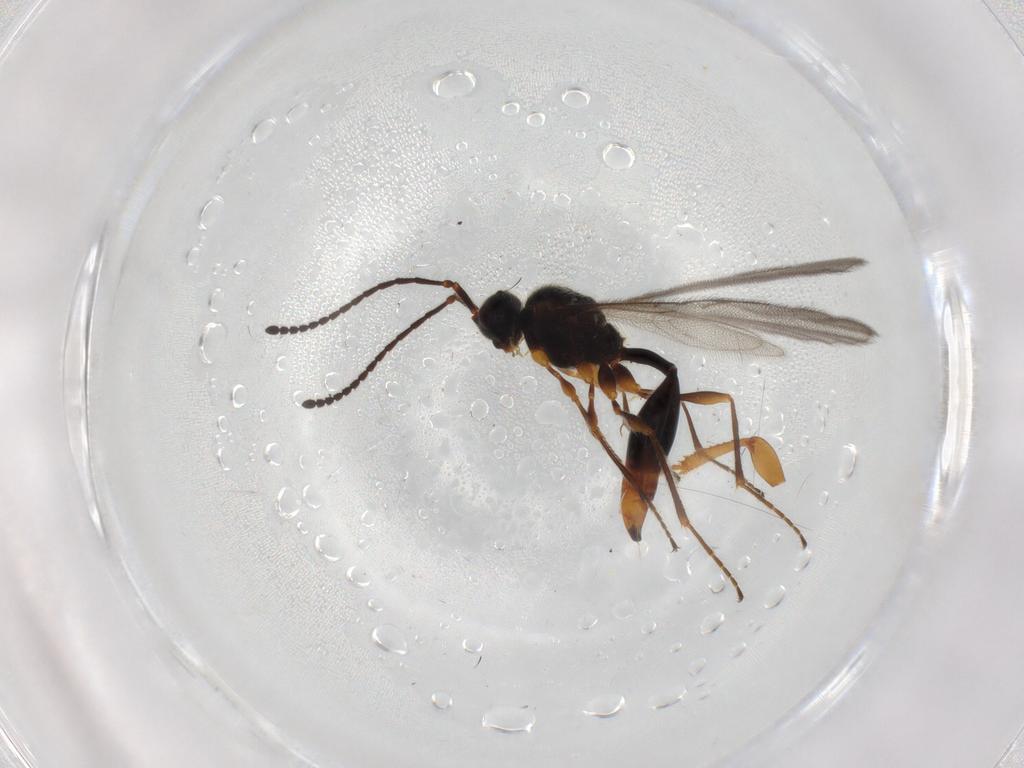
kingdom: Animalia
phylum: Arthropoda
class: Insecta
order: Hymenoptera
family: Diapriidae
